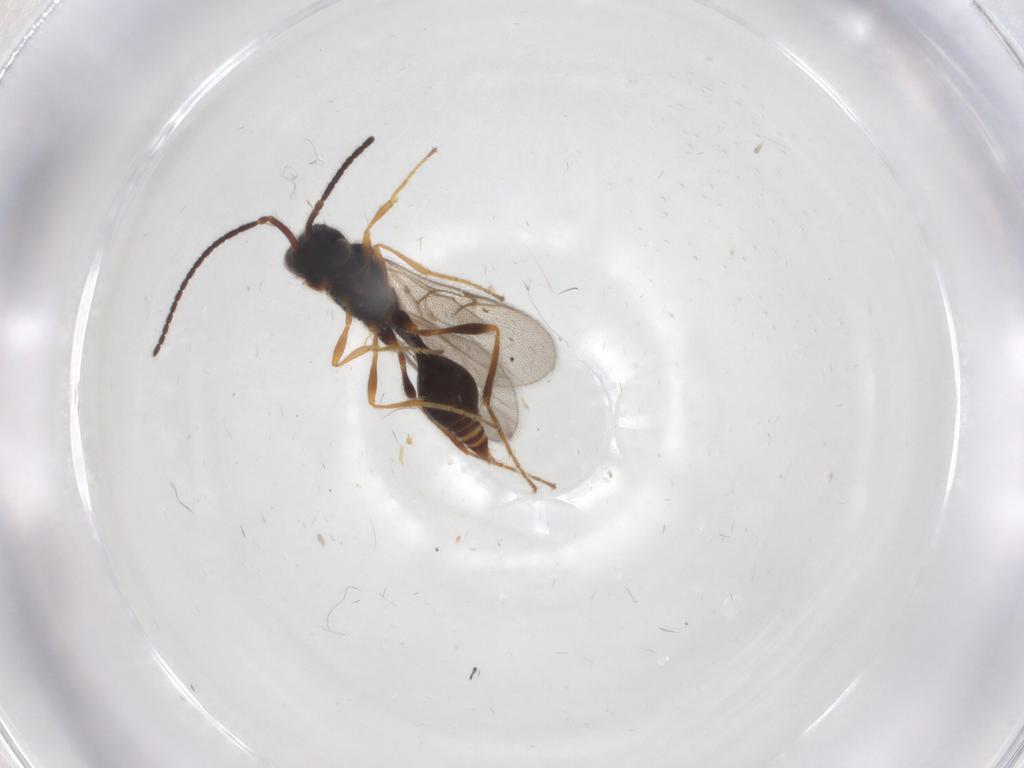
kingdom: Animalia
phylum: Arthropoda
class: Insecta
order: Hymenoptera
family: Diapriidae
